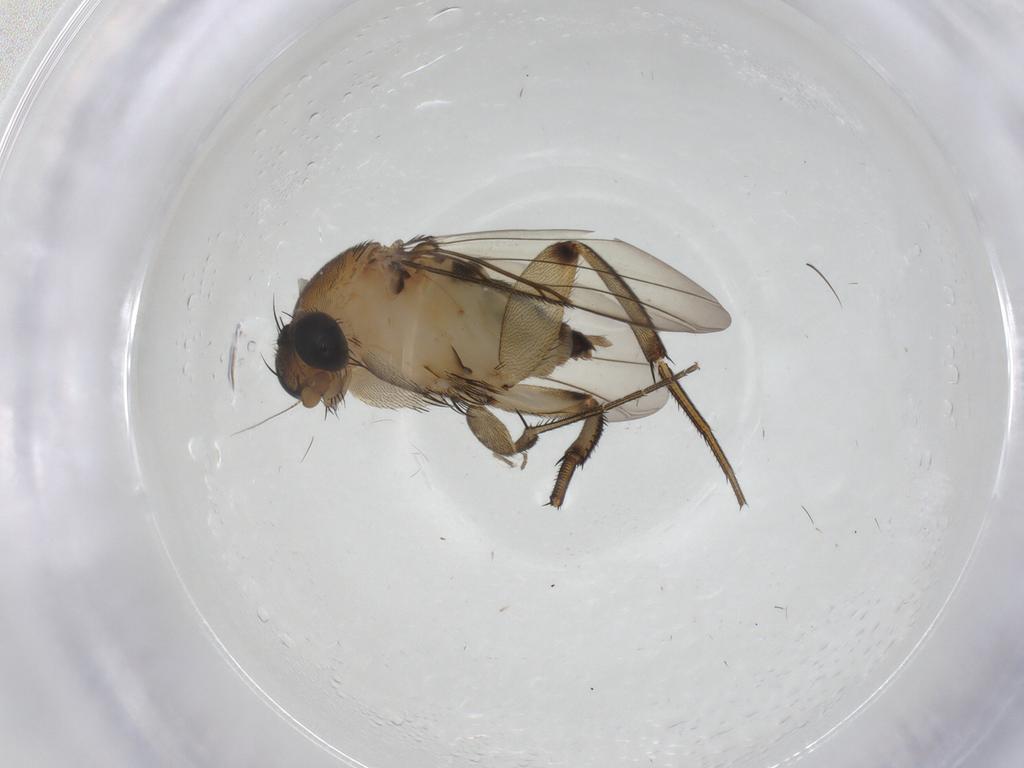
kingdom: Animalia
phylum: Arthropoda
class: Insecta
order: Diptera
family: Phoridae
